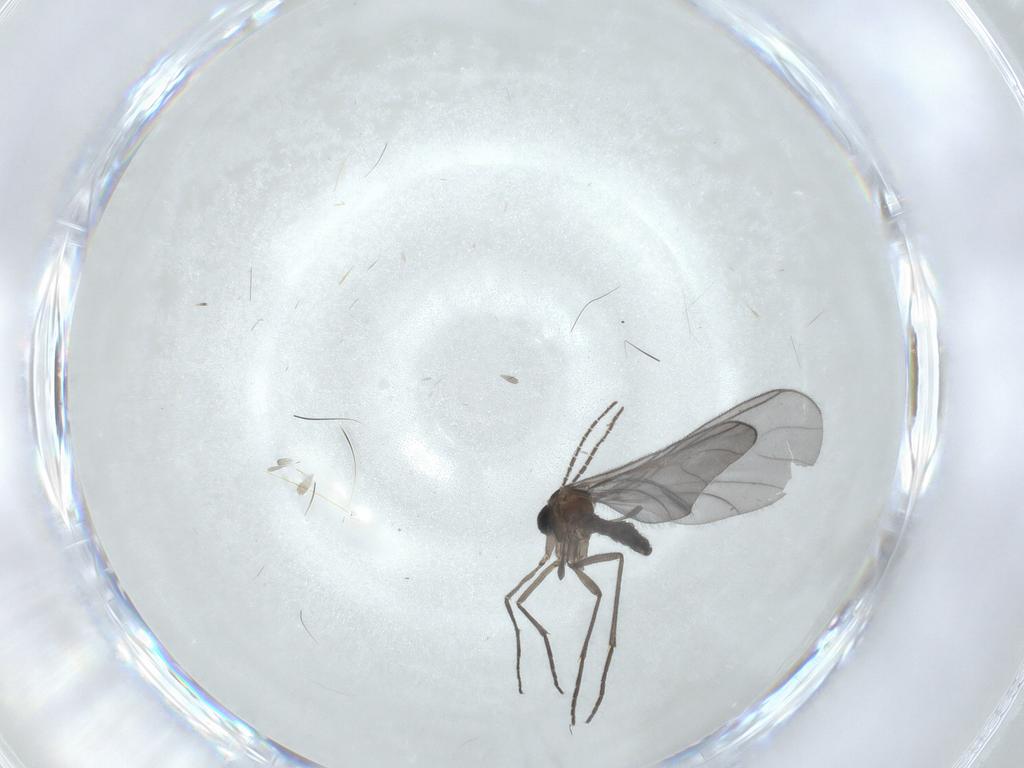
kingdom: Animalia
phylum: Arthropoda
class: Insecta
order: Diptera
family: Sciaridae
